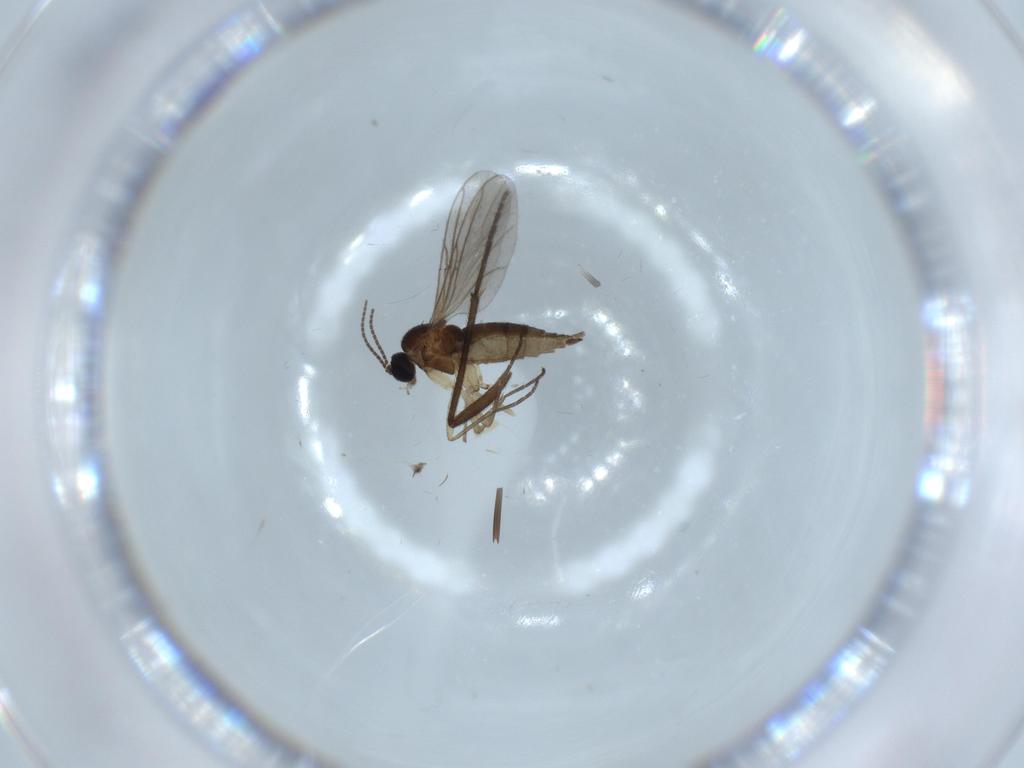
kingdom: Animalia
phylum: Arthropoda
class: Insecta
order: Diptera
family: Sciaridae
